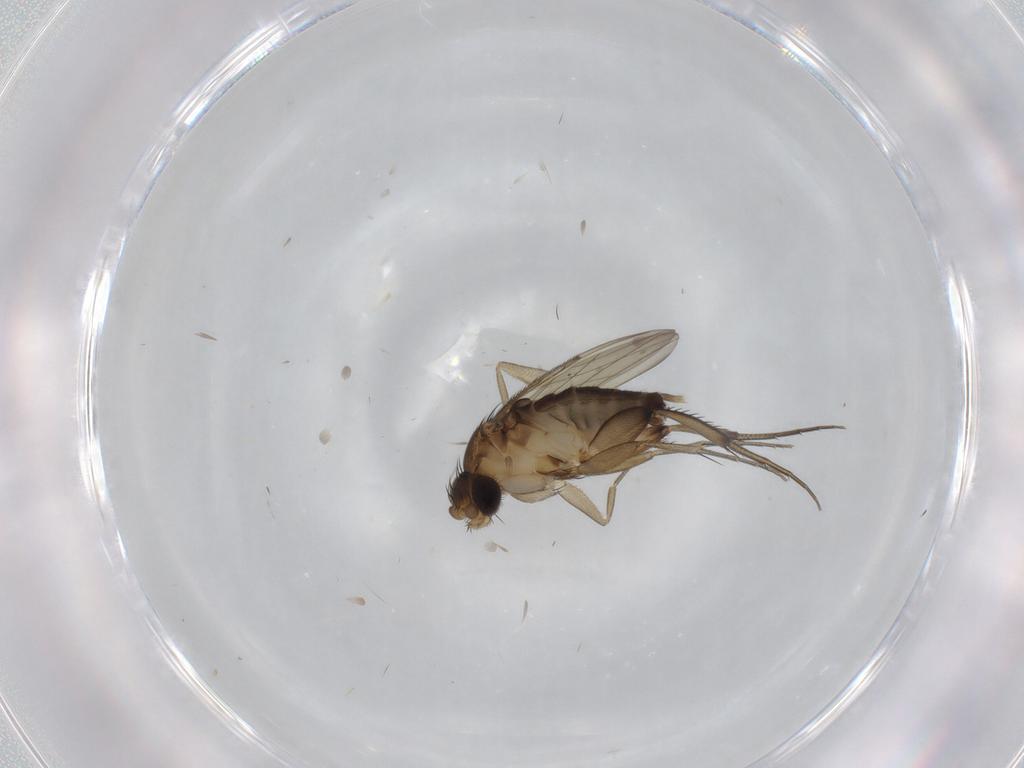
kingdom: Animalia
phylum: Arthropoda
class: Insecta
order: Diptera
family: Phoridae
